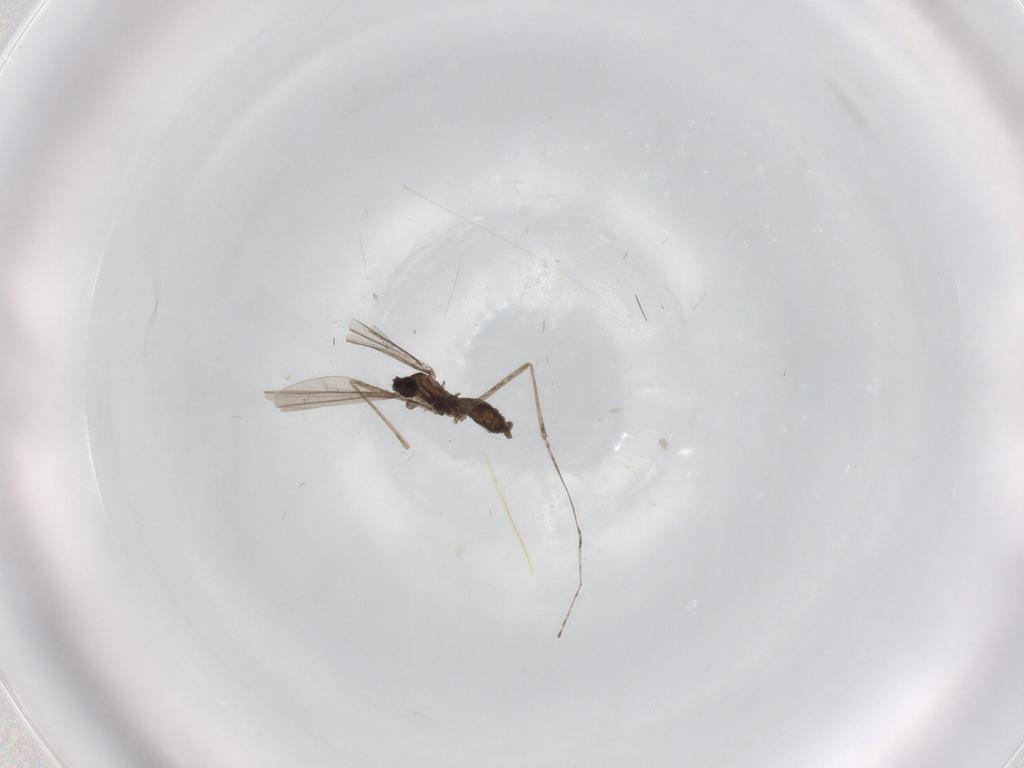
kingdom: Animalia
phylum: Arthropoda
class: Insecta
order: Diptera
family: Cecidomyiidae
